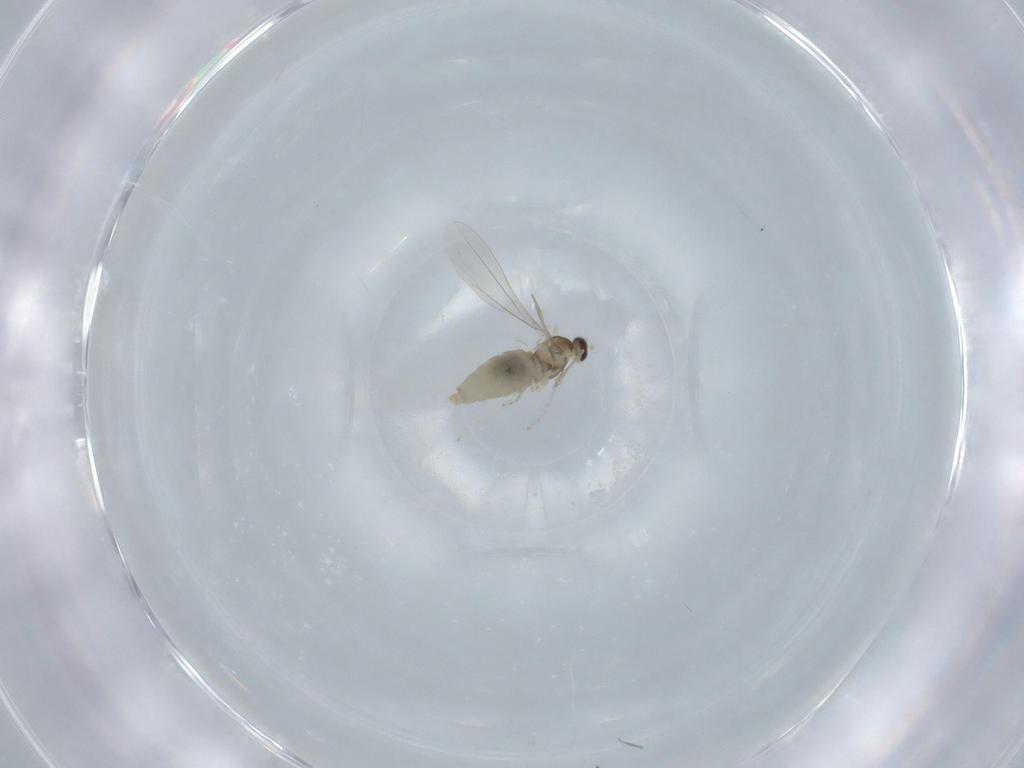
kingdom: Animalia
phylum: Arthropoda
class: Insecta
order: Diptera
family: Cecidomyiidae
